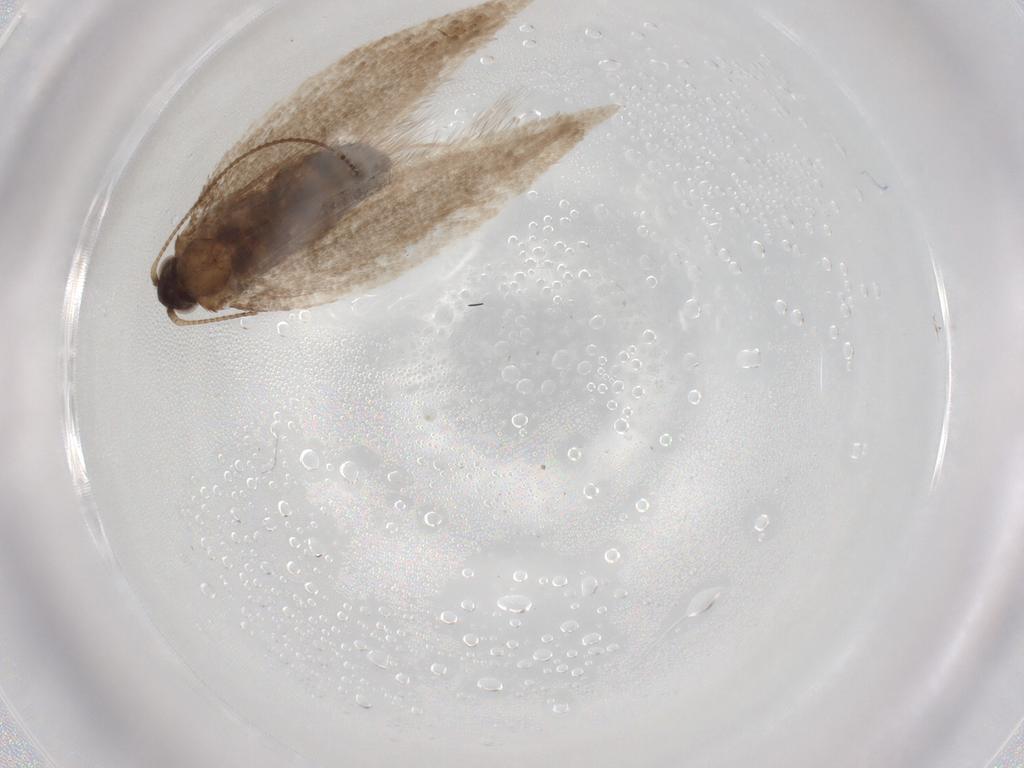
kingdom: Animalia
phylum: Arthropoda
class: Insecta
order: Lepidoptera
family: Nepticulidae
